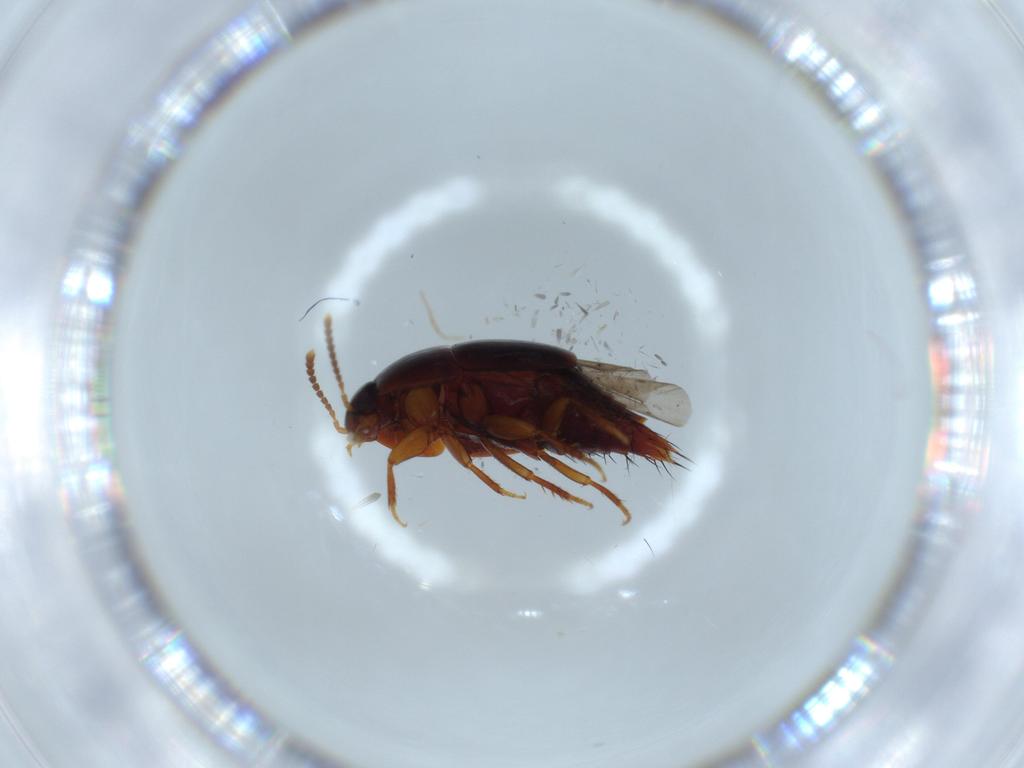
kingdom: Animalia
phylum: Arthropoda
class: Insecta
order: Coleoptera
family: Staphylinidae
